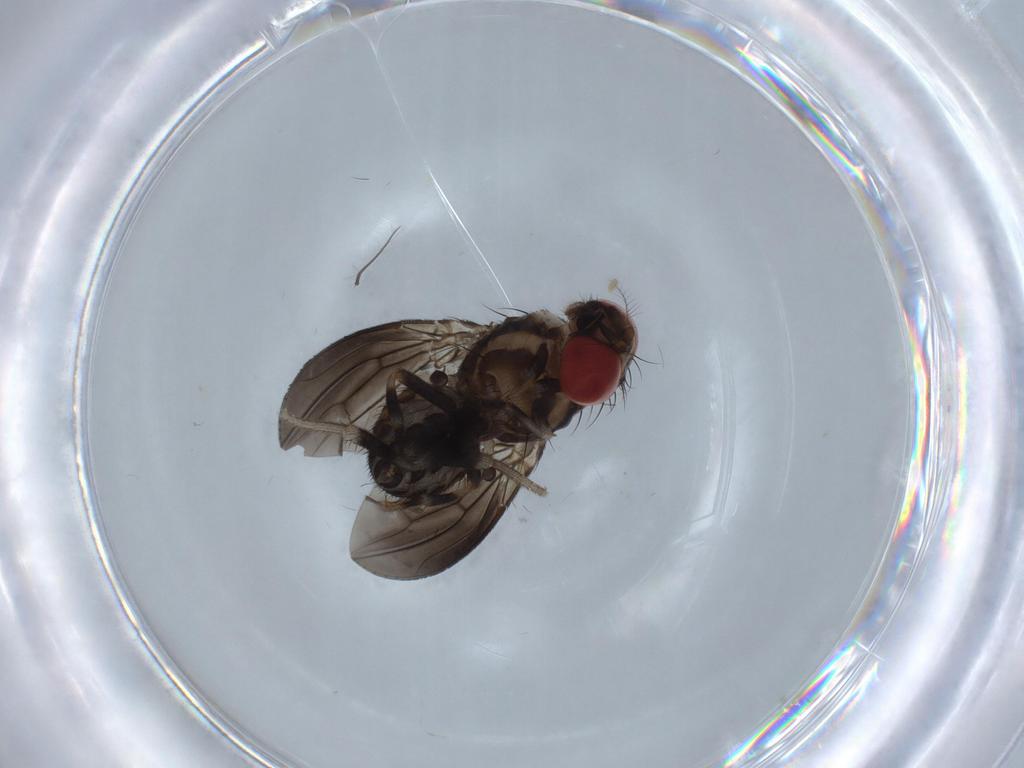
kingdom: Animalia
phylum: Arthropoda
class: Insecta
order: Diptera
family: Drosophilidae
